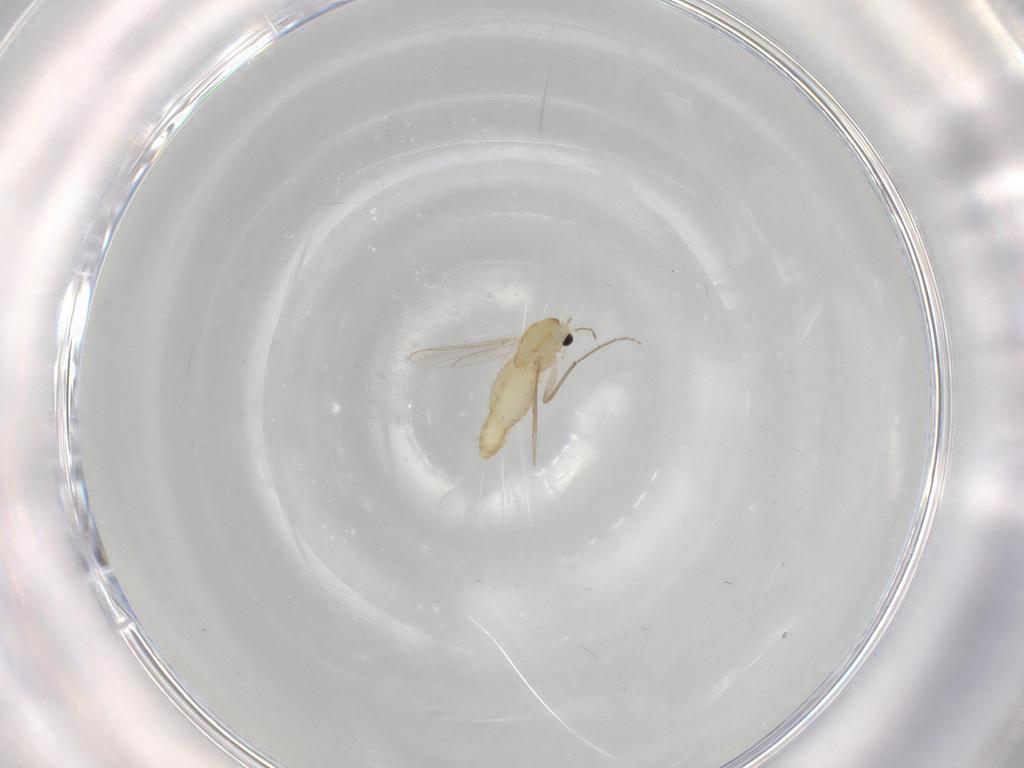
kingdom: Animalia
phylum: Arthropoda
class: Insecta
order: Diptera
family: Chironomidae
